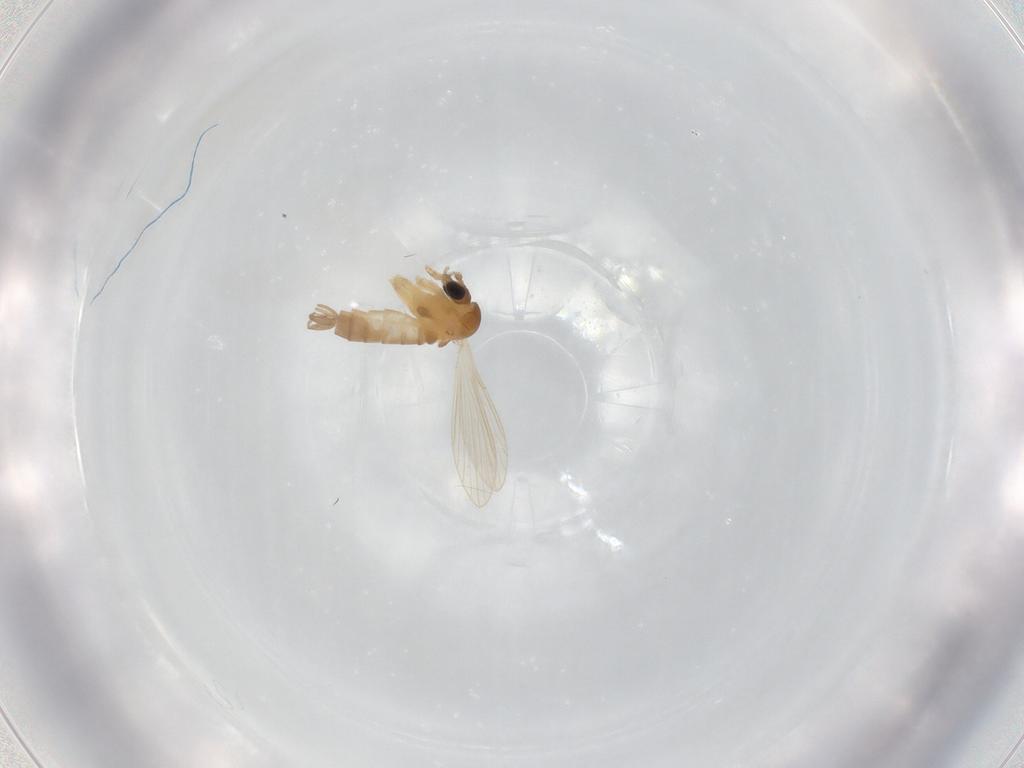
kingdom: Animalia
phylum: Arthropoda
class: Insecta
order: Diptera
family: Psychodidae
